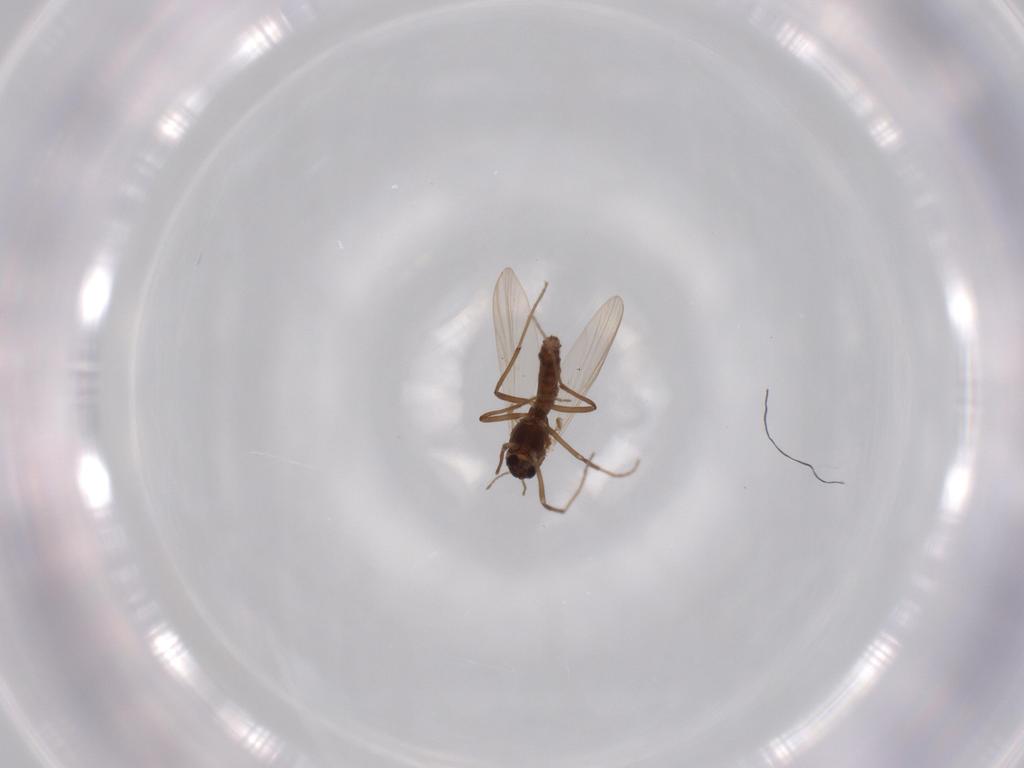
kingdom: Animalia
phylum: Arthropoda
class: Insecta
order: Diptera
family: Chironomidae
